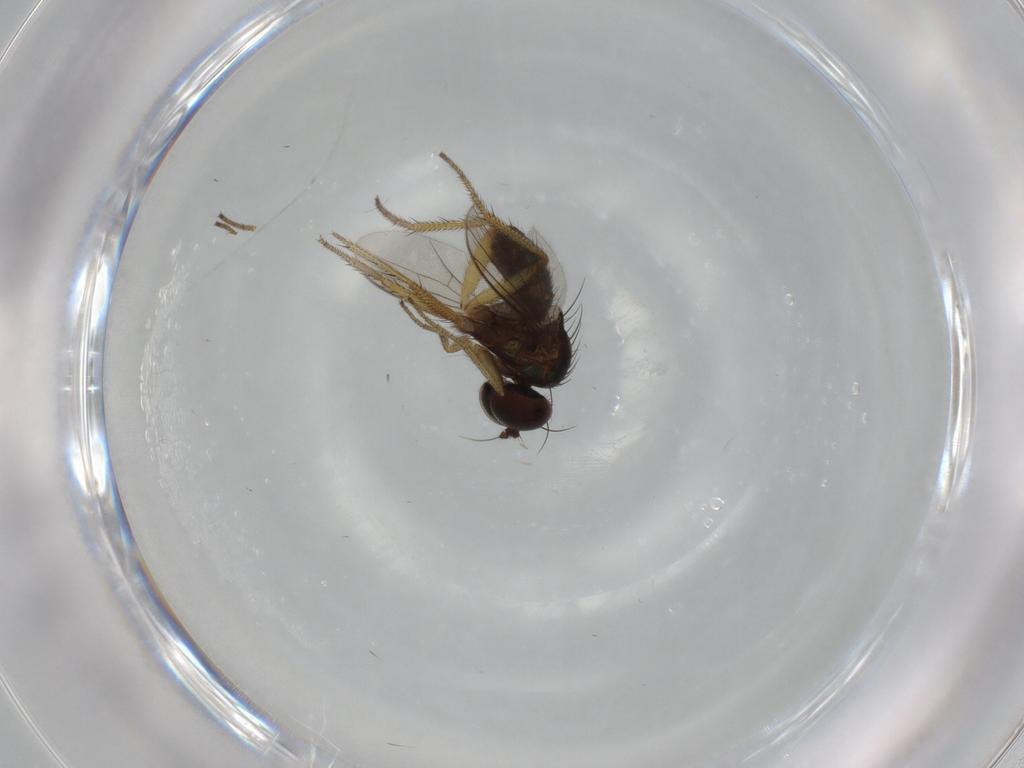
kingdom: Animalia
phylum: Arthropoda
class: Insecta
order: Diptera
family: Dolichopodidae
